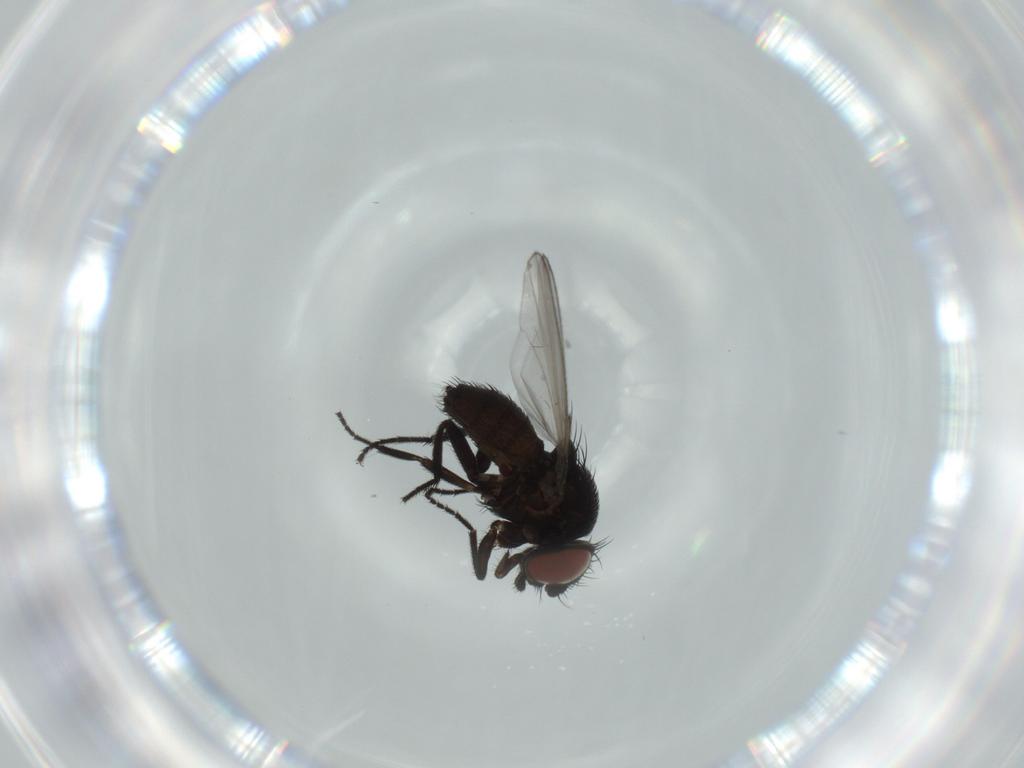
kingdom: Animalia
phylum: Arthropoda
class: Insecta
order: Diptera
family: Milichiidae
